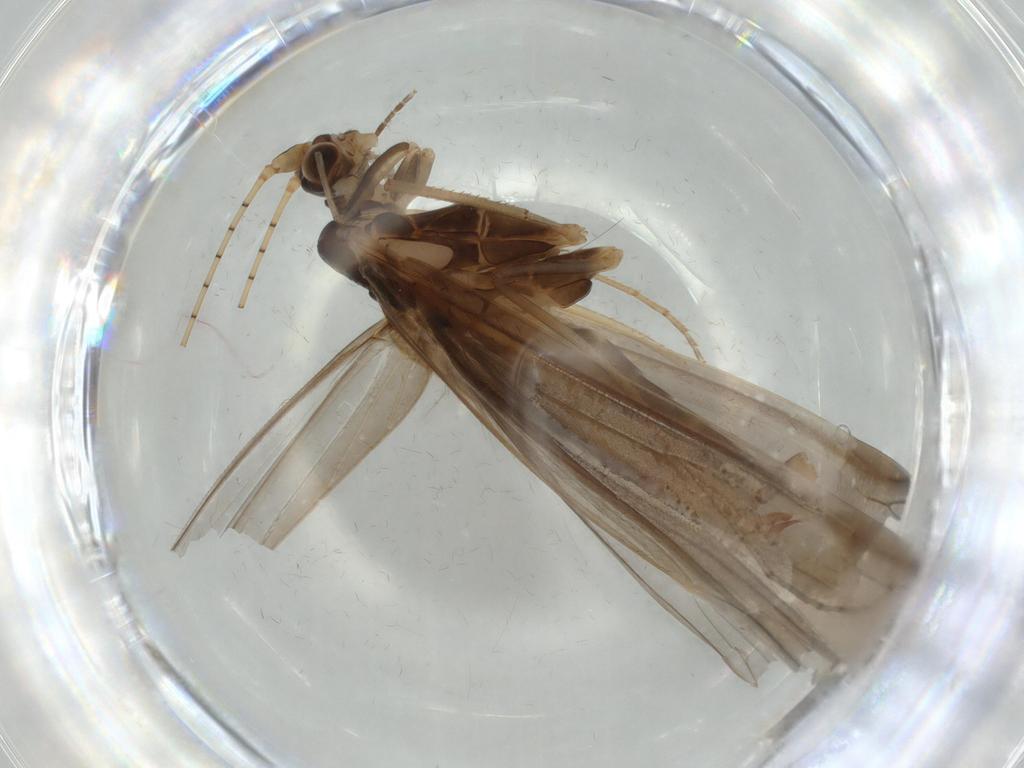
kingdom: Animalia
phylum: Arthropoda
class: Insecta
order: Trichoptera
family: Leptoceridae
